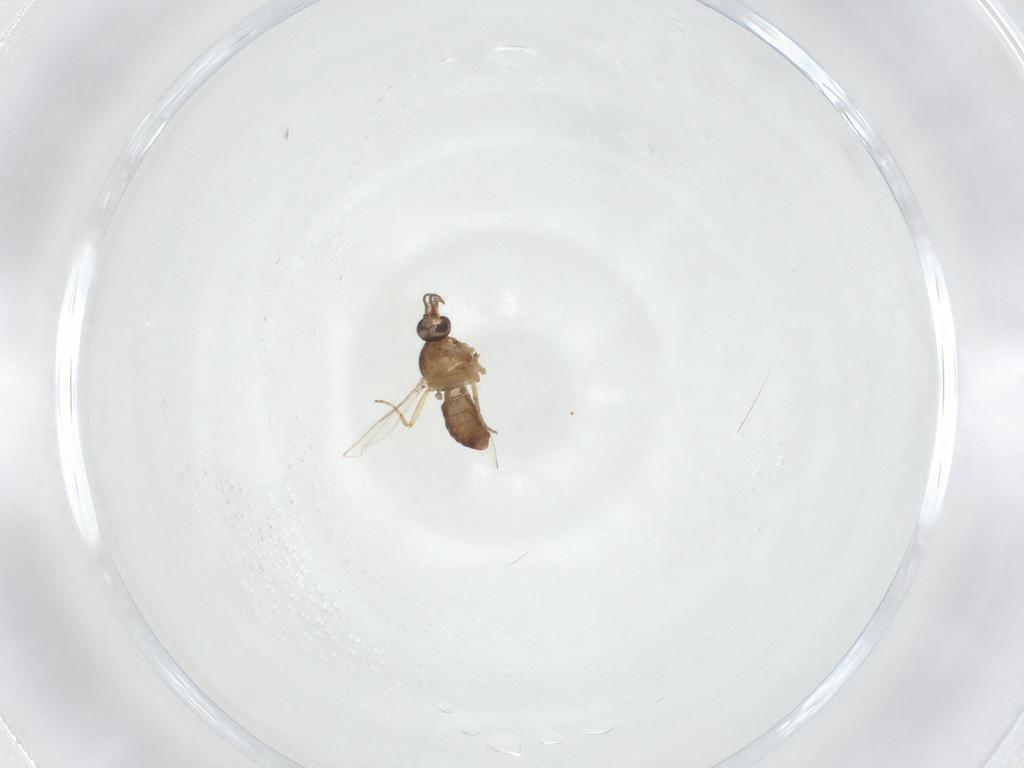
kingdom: Animalia
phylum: Arthropoda
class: Insecta
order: Diptera
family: Ceratopogonidae
